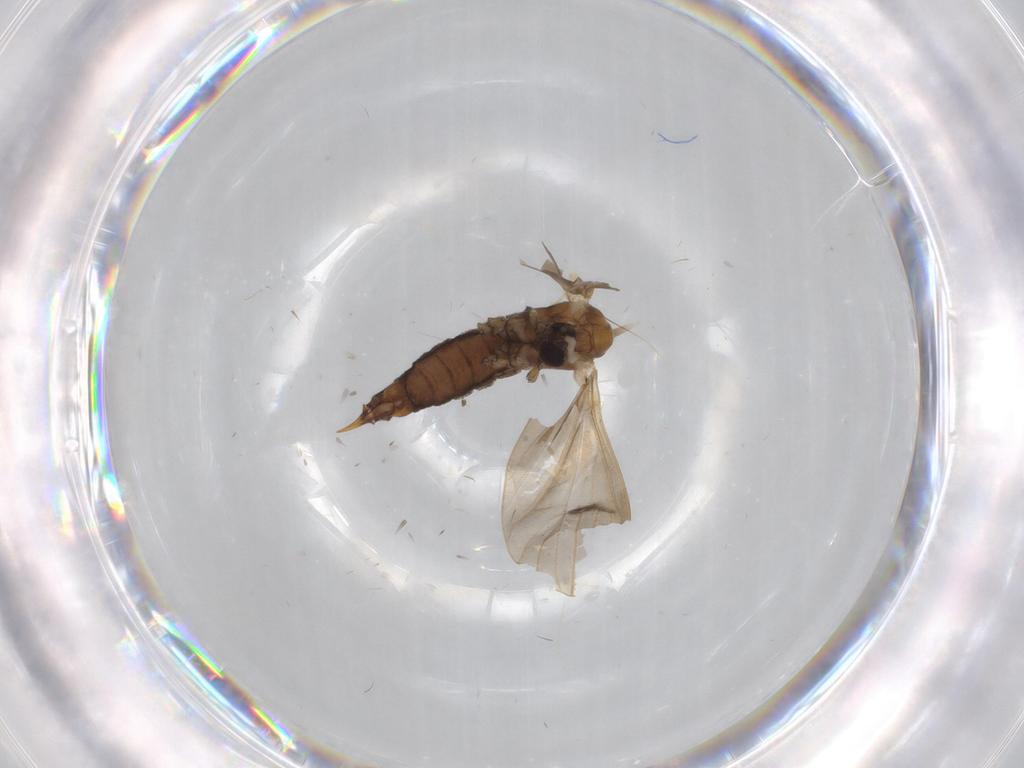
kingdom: Animalia
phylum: Arthropoda
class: Insecta
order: Diptera
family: Limoniidae
